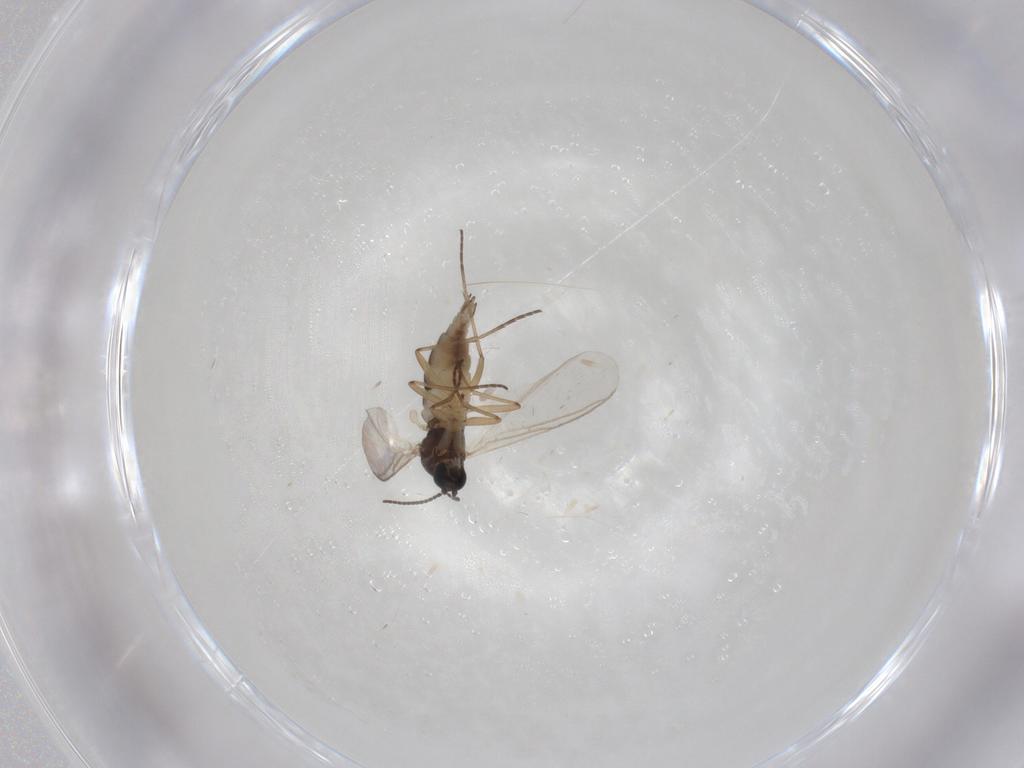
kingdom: Animalia
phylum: Arthropoda
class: Insecta
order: Diptera
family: Sciaridae
